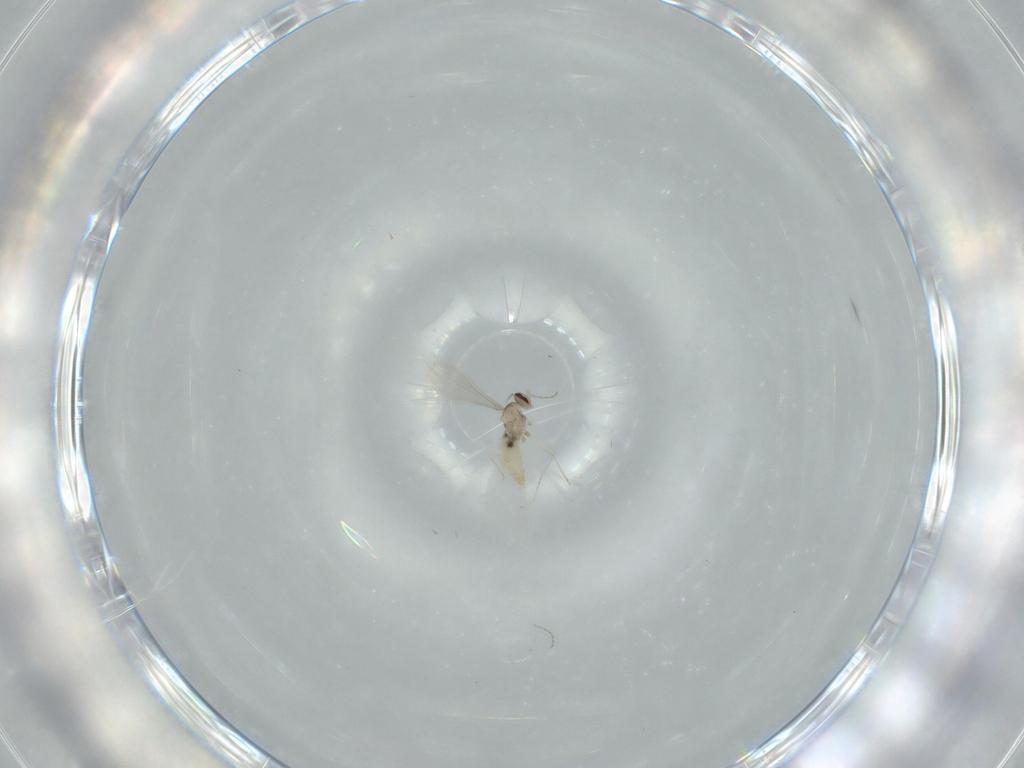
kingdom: Animalia
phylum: Arthropoda
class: Insecta
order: Diptera
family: Cecidomyiidae
